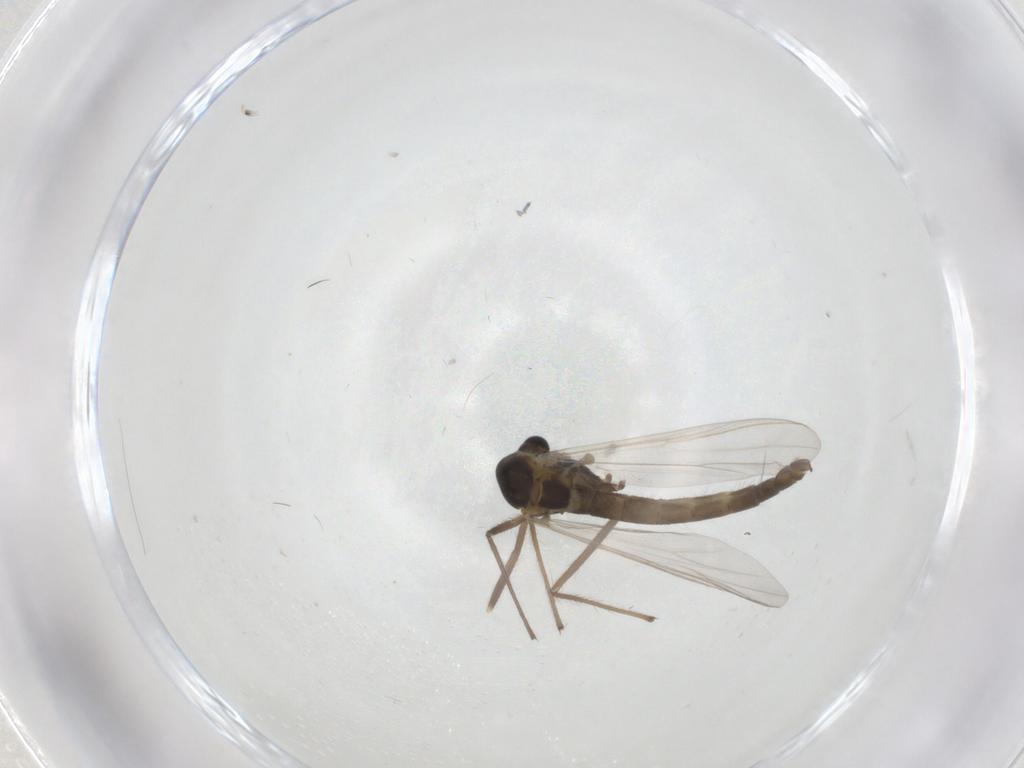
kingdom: Animalia
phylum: Arthropoda
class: Insecta
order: Diptera
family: Chironomidae
